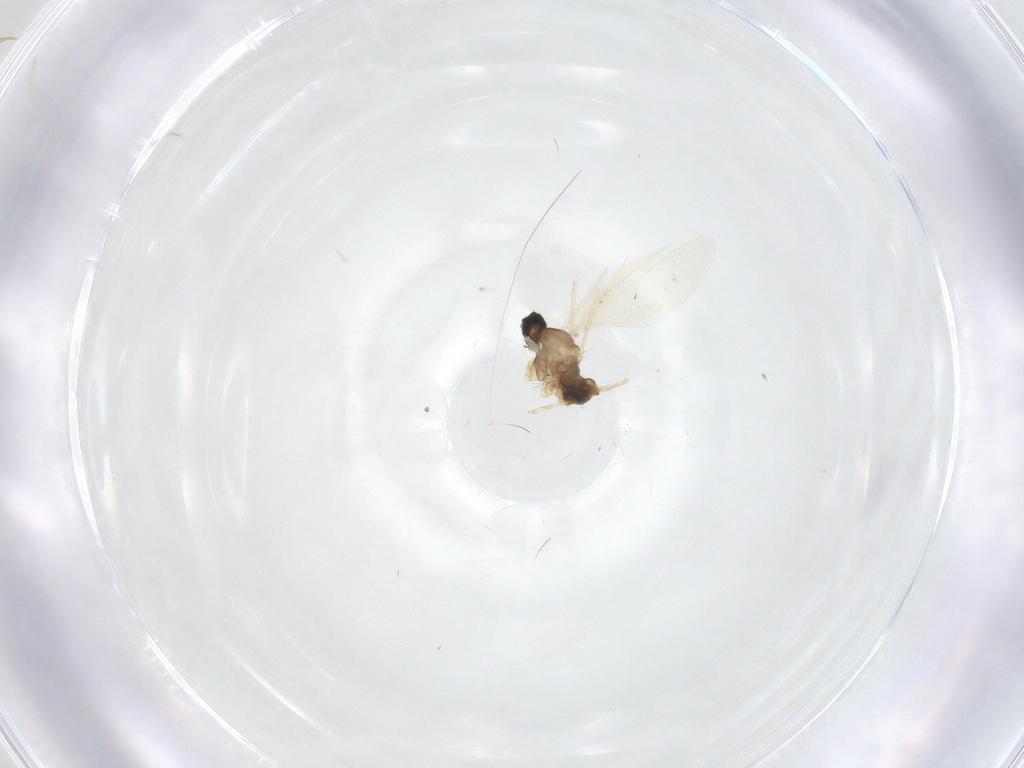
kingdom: Animalia
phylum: Arthropoda
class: Insecta
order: Diptera
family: Ceratopogonidae
